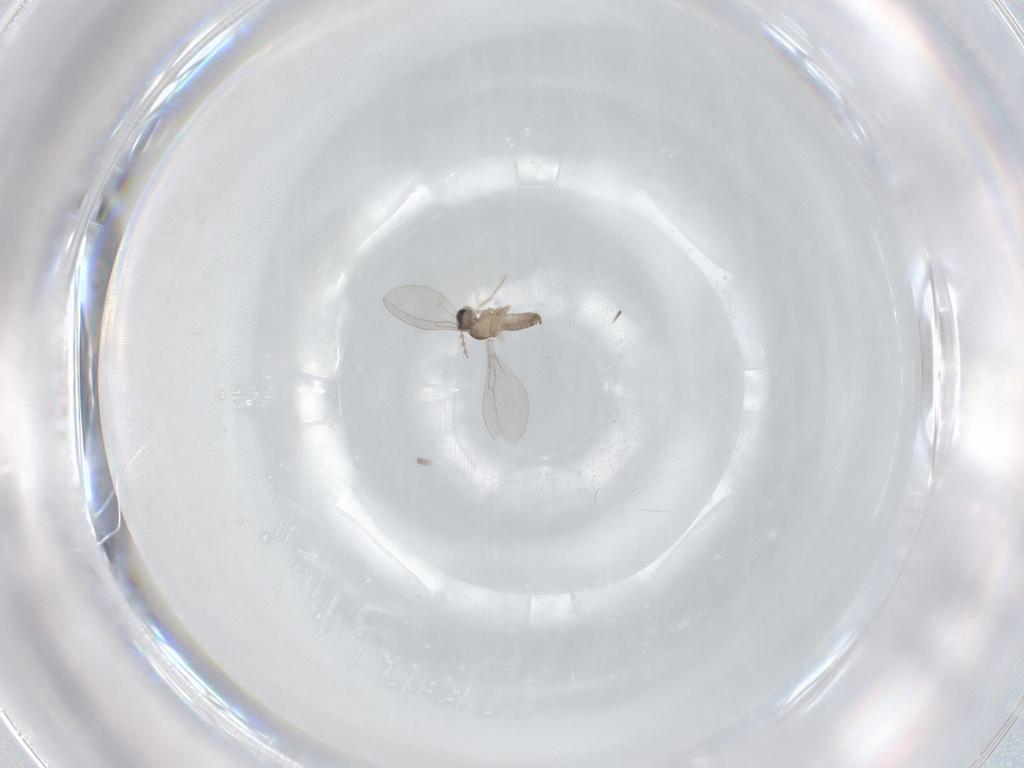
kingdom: Animalia
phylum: Arthropoda
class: Insecta
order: Diptera
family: Cecidomyiidae
